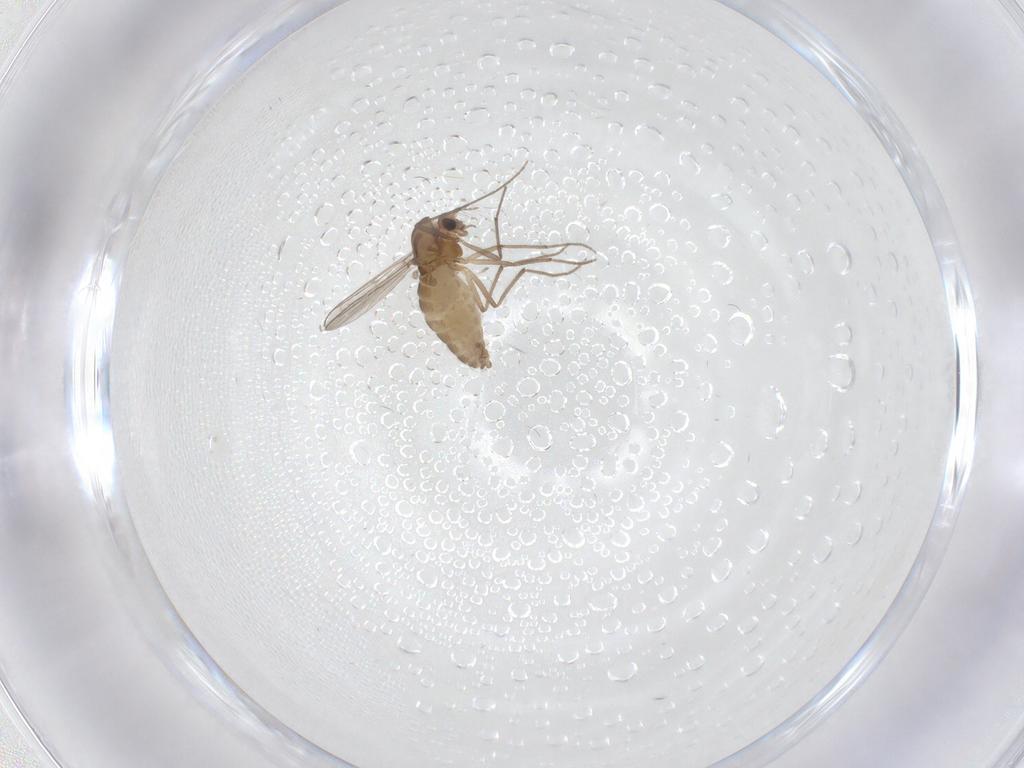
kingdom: Animalia
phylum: Arthropoda
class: Insecta
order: Diptera
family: Chironomidae
